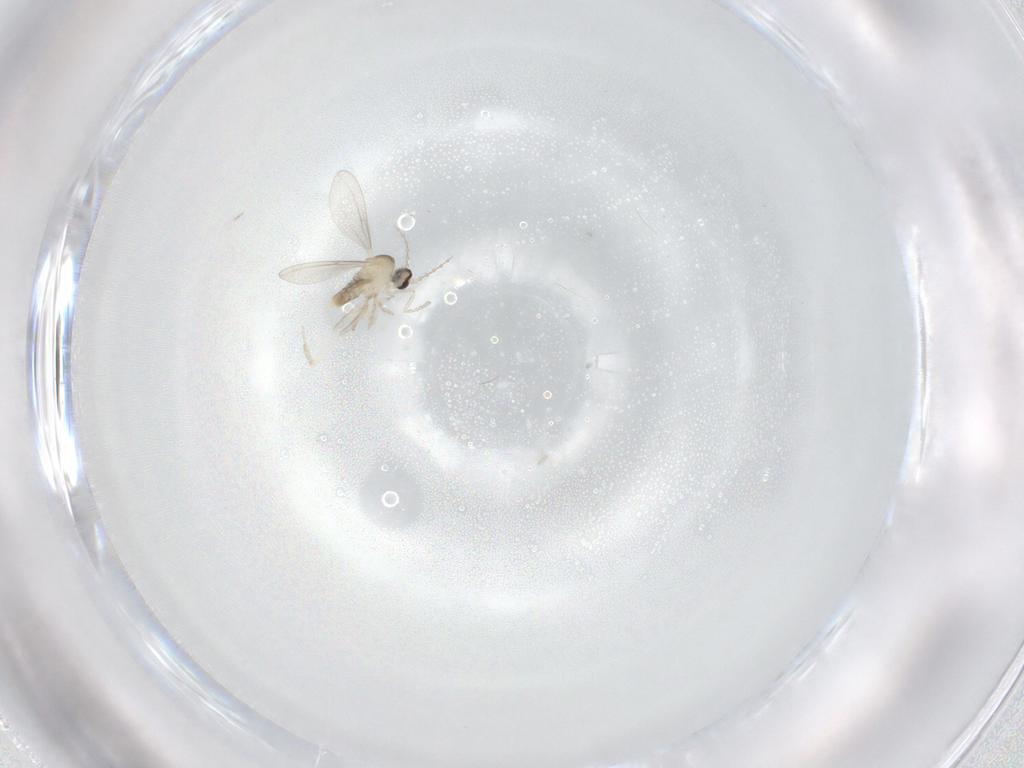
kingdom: Animalia
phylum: Arthropoda
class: Insecta
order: Diptera
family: Cecidomyiidae
